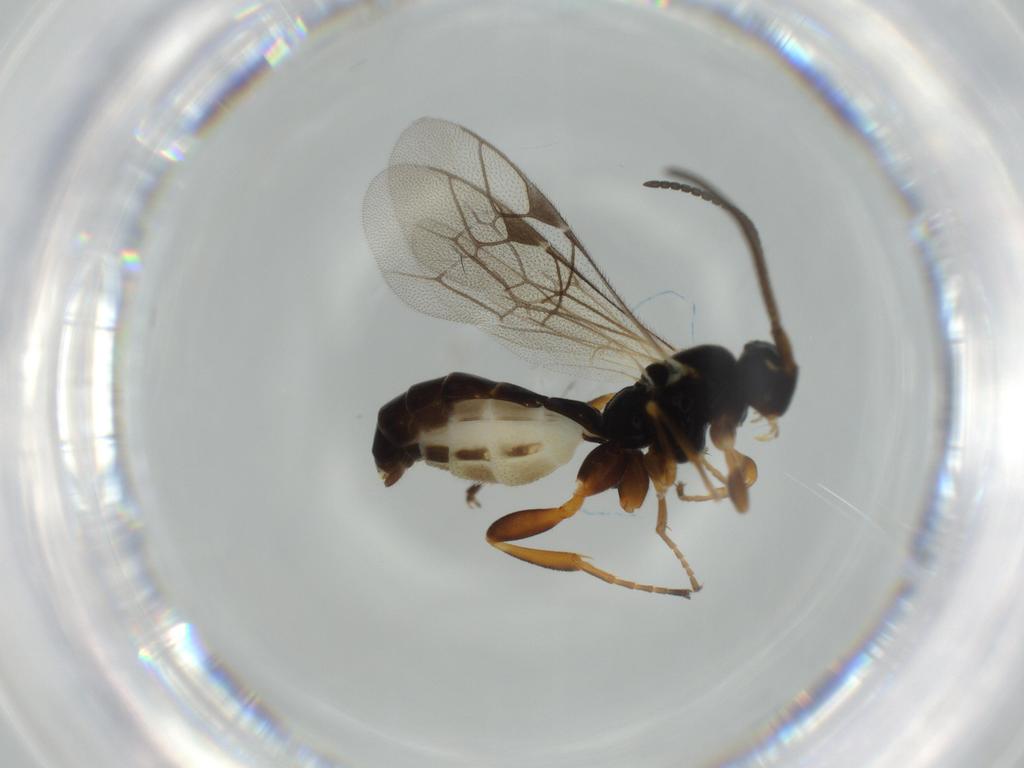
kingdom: Animalia
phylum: Arthropoda
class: Insecta
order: Hymenoptera
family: Ichneumonidae
